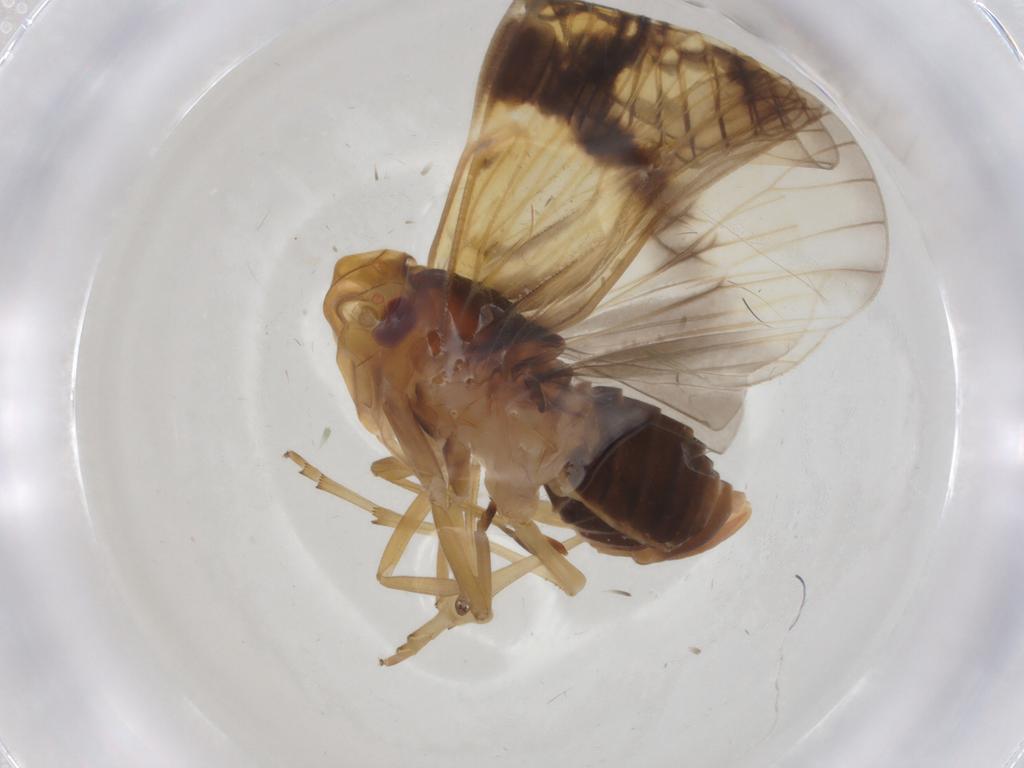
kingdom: Animalia
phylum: Arthropoda
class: Insecta
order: Hemiptera
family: Cixiidae
